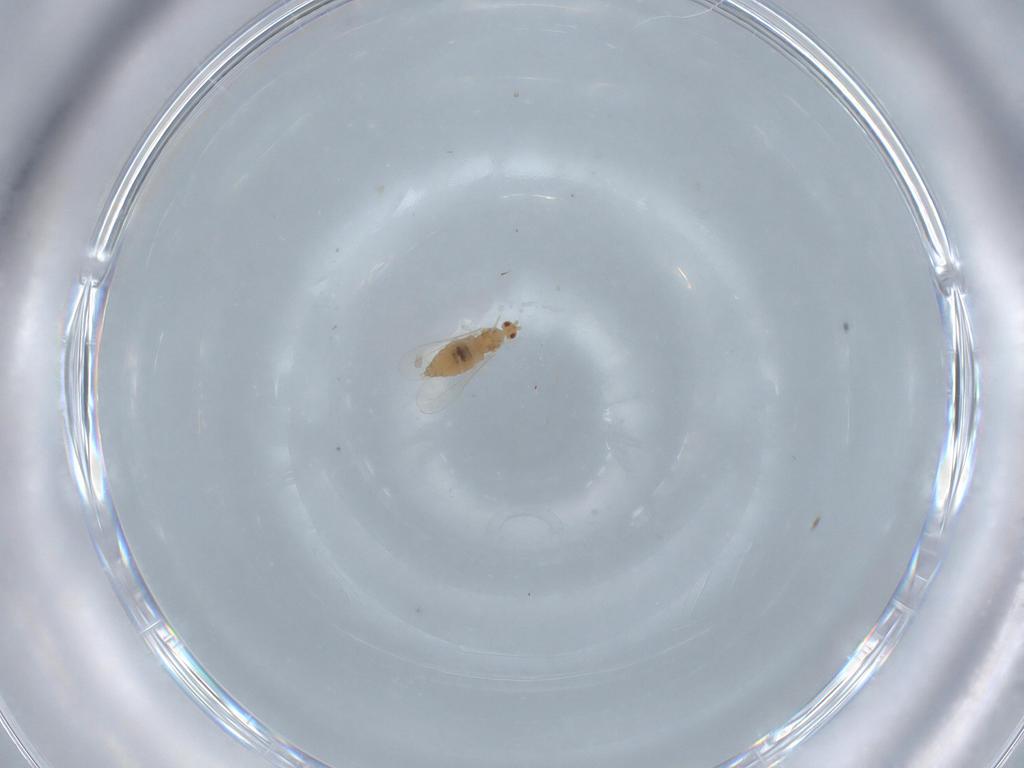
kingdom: Animalia
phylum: Arthropoda
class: Insecta
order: Diptera
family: Cecidomyiidae
